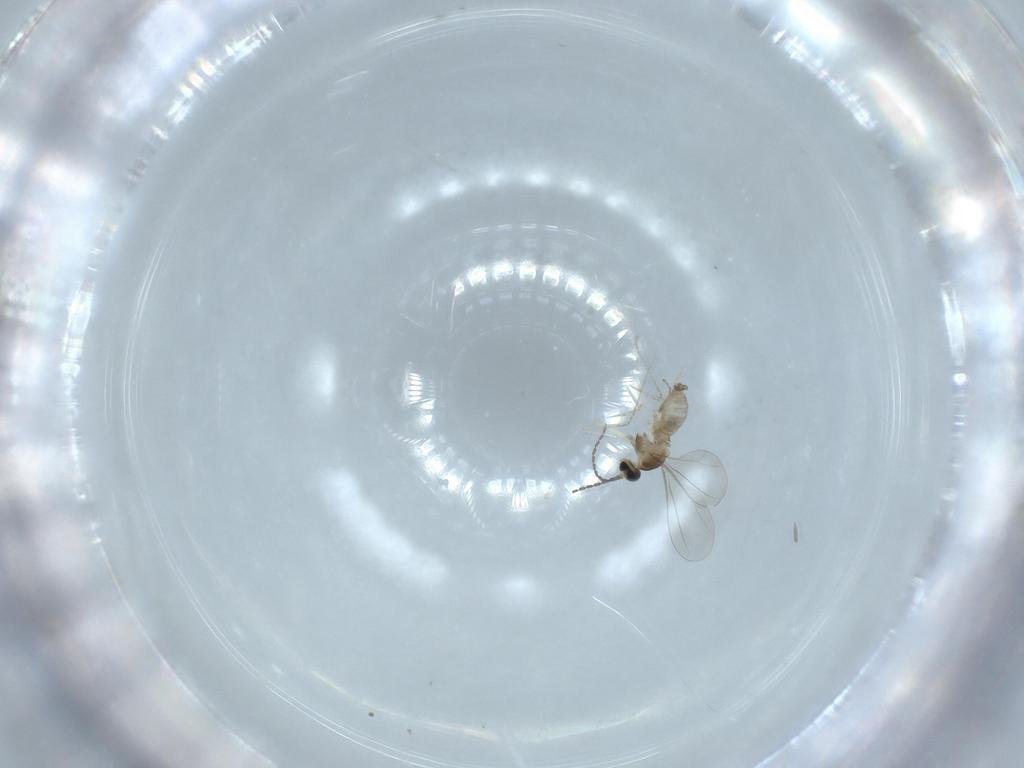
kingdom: Animalia
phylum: Arthropoda
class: Insecta
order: Diptera
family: Cecidomyiidae
